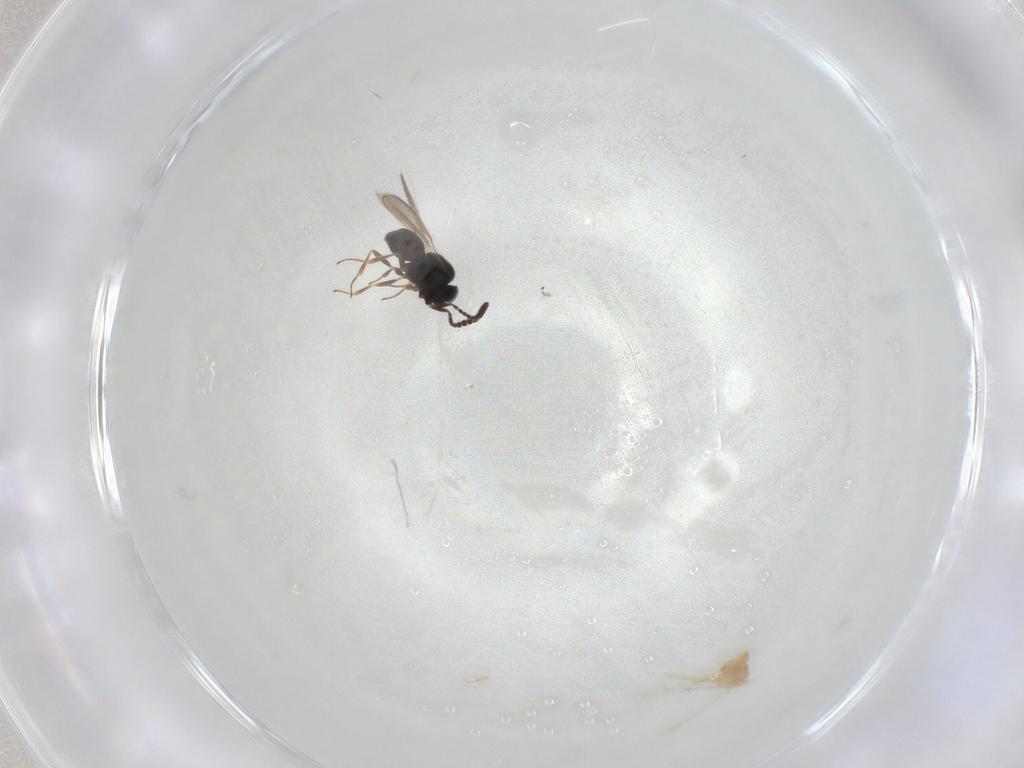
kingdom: Animalia
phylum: Arthropoda
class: Insecta
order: Hymenoptera
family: Scelionidae
